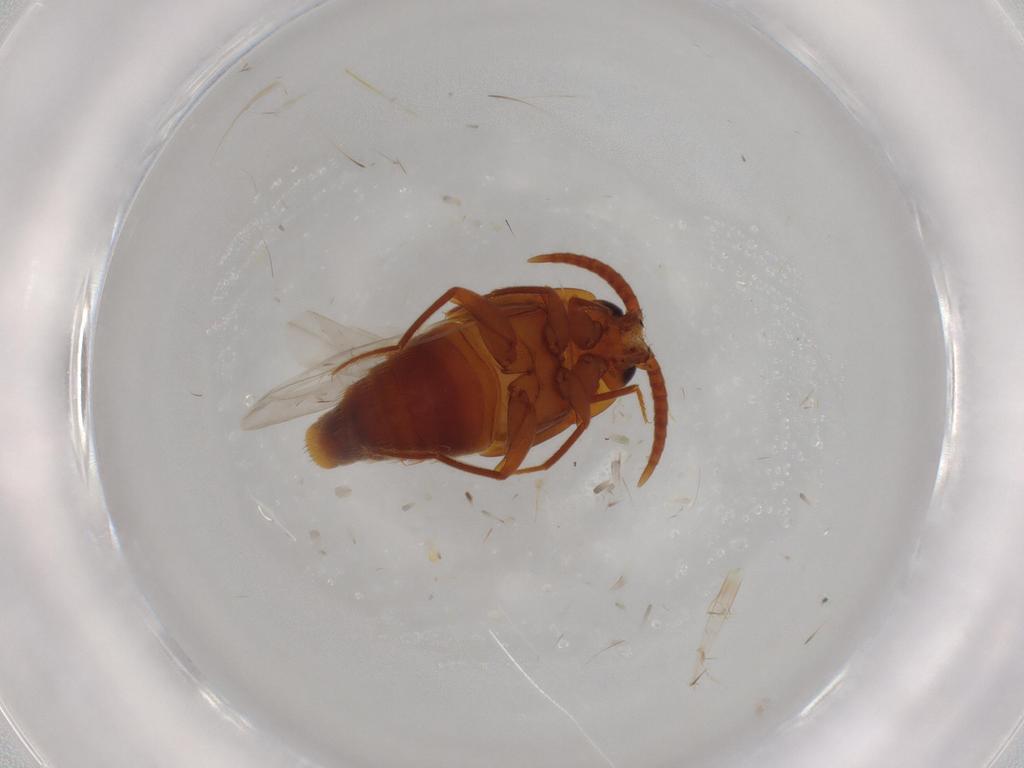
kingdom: Animalia
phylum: Arthropoda
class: Insecta
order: Coleoptera
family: Staphylinidae
